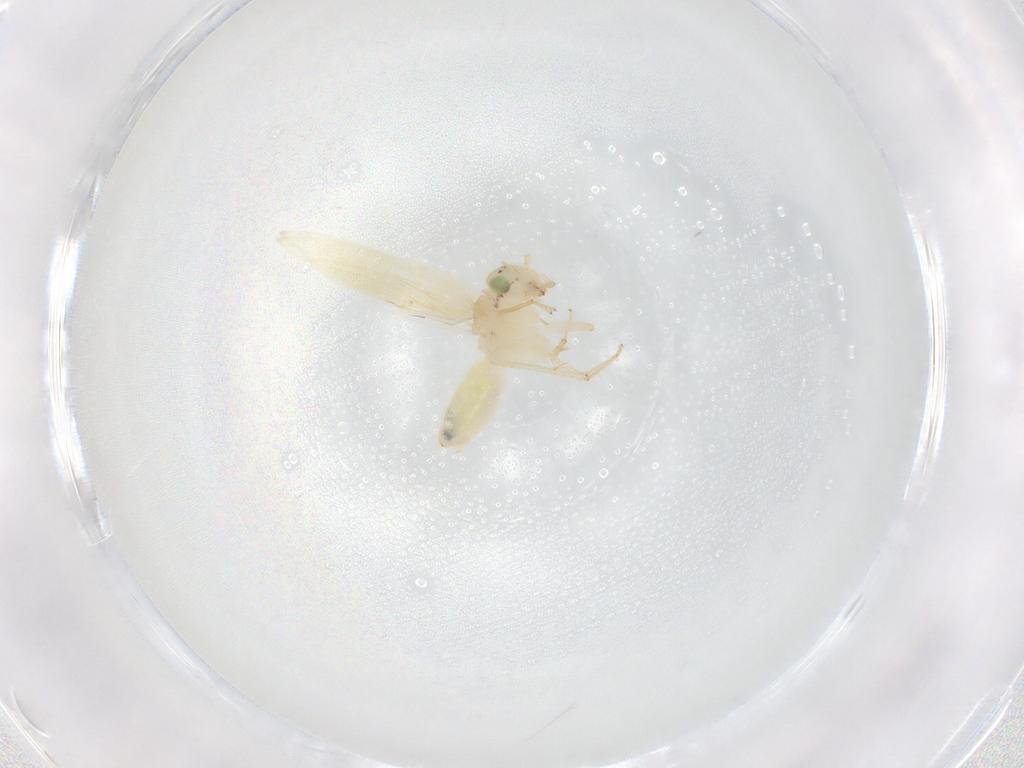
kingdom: Animalia
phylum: Arthropoda
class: Insecta
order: Psocodea
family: Lepidopsocidae
